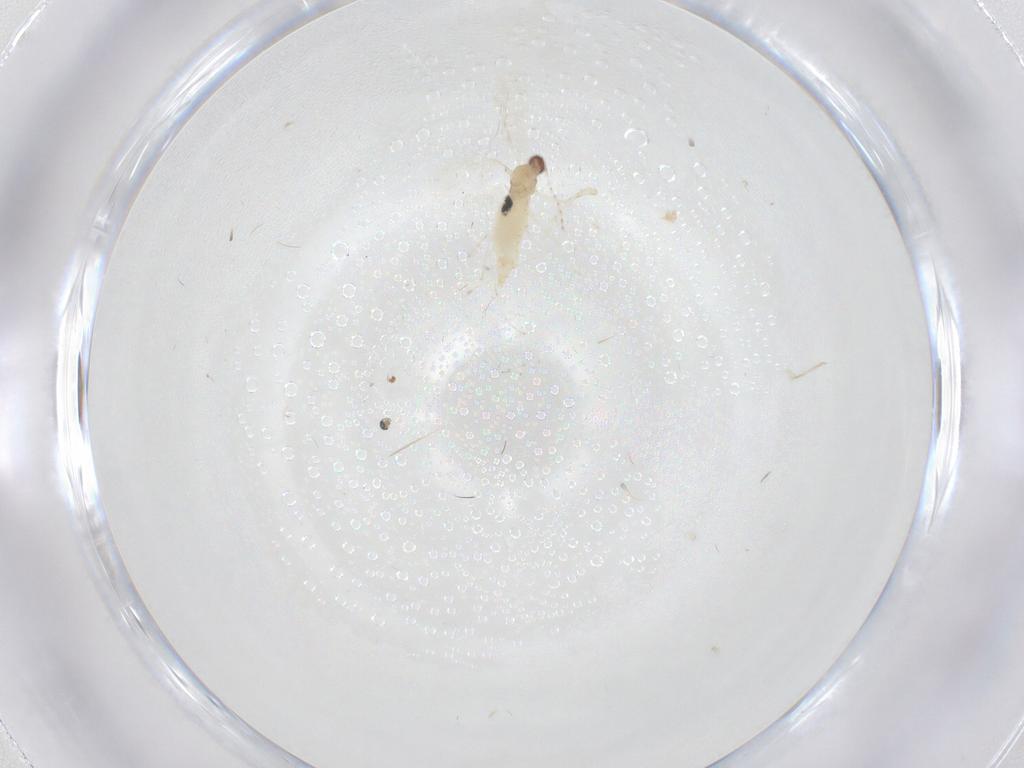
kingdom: Animalia
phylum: Arthropoda
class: Insecta
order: Diptera
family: Cecidomyiidae
